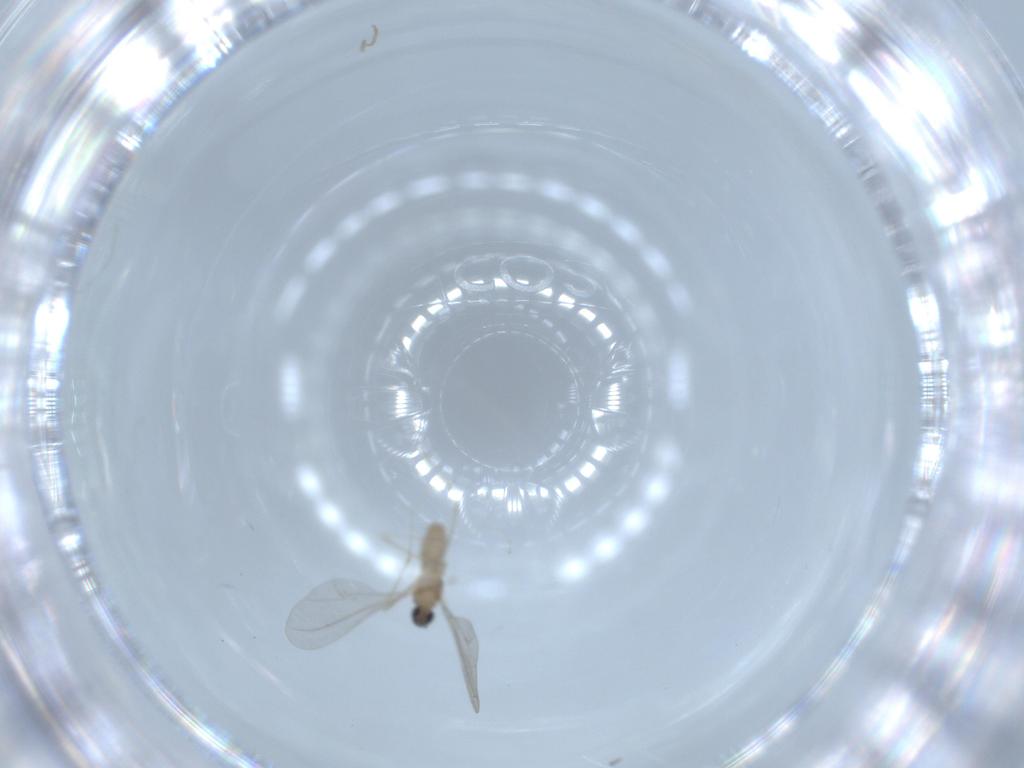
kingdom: Animalia
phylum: Arthropoda
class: Insecta
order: Diptera
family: Cecidomyiidae
